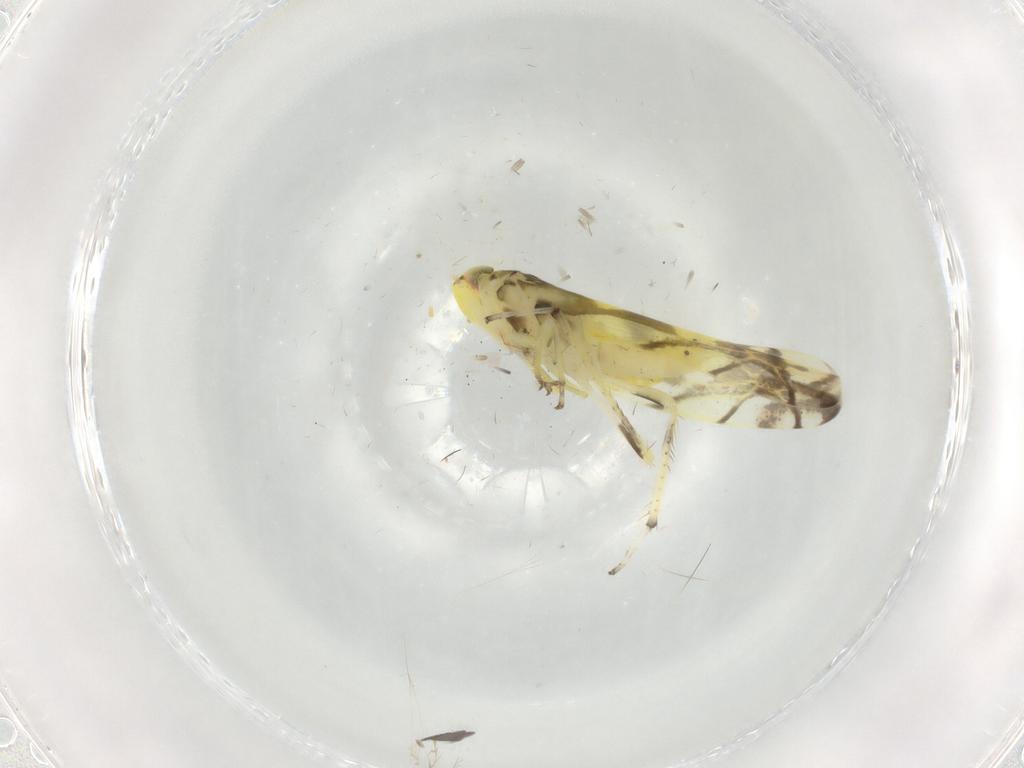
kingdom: Animalia
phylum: Arthropoda
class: Insecta
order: Hemiptera
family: Cicadellidae
